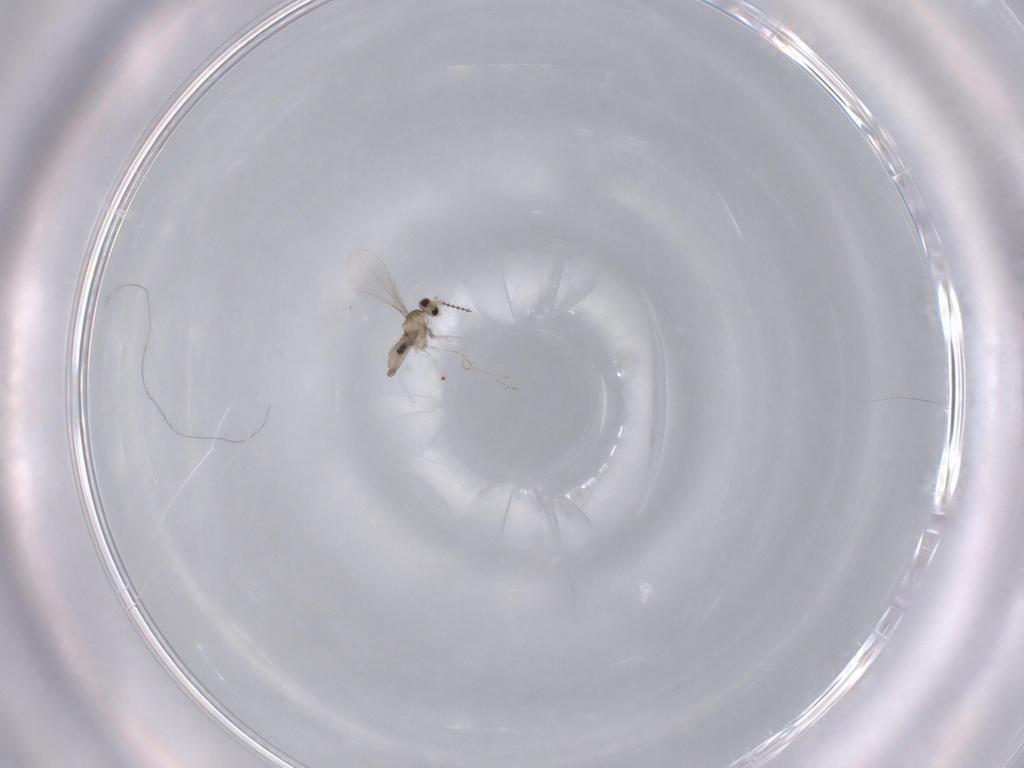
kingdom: Animalia
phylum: Arthropoda
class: Insecta
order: Diptera
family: Cecidomyiidae
